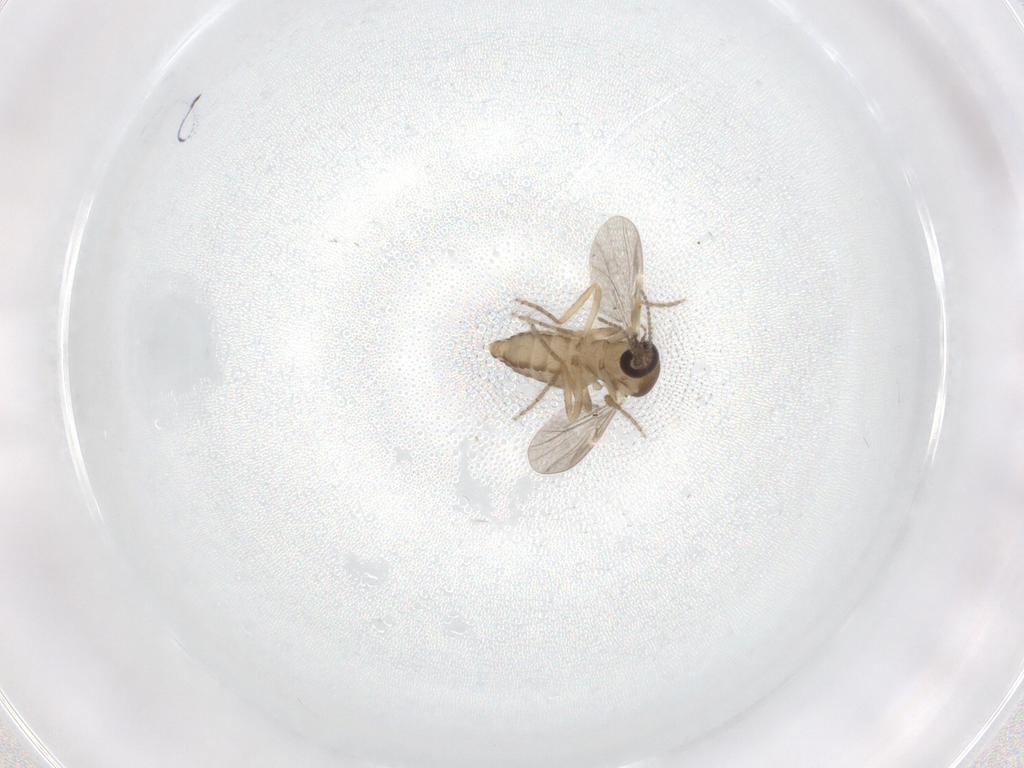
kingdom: Animalia
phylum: Arthropoda
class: Insecta
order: Diptera
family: Ceratopogonidae
